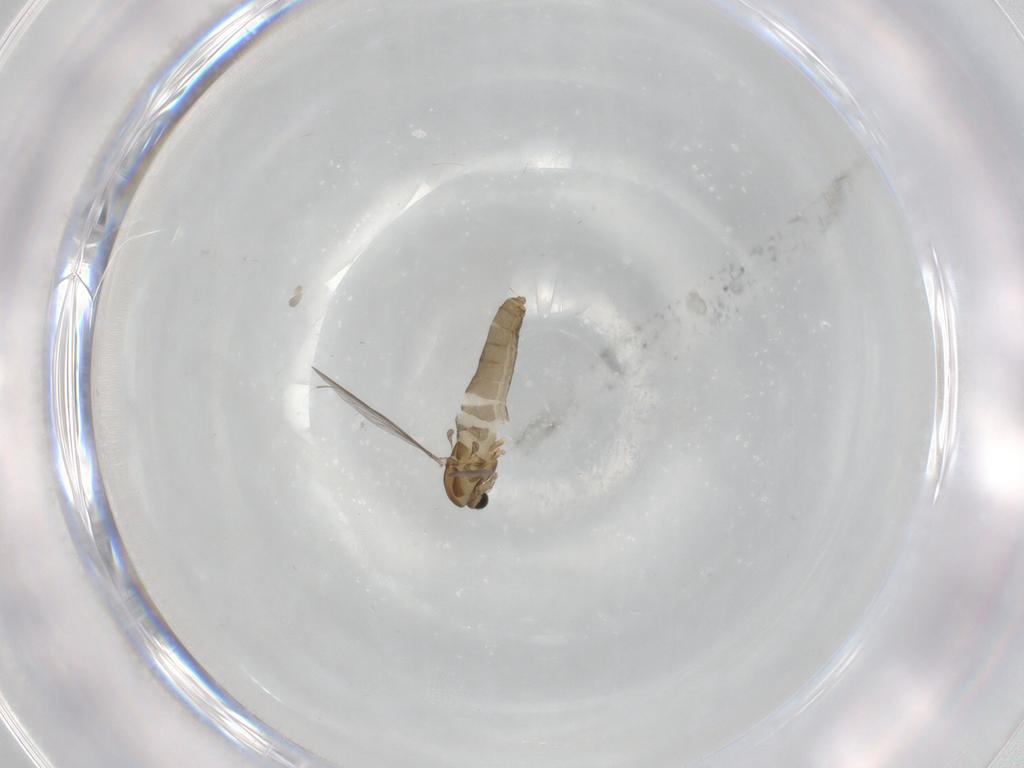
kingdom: Animalia
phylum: Arthropoda
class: Insecta
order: Diptera
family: Chironomidae
